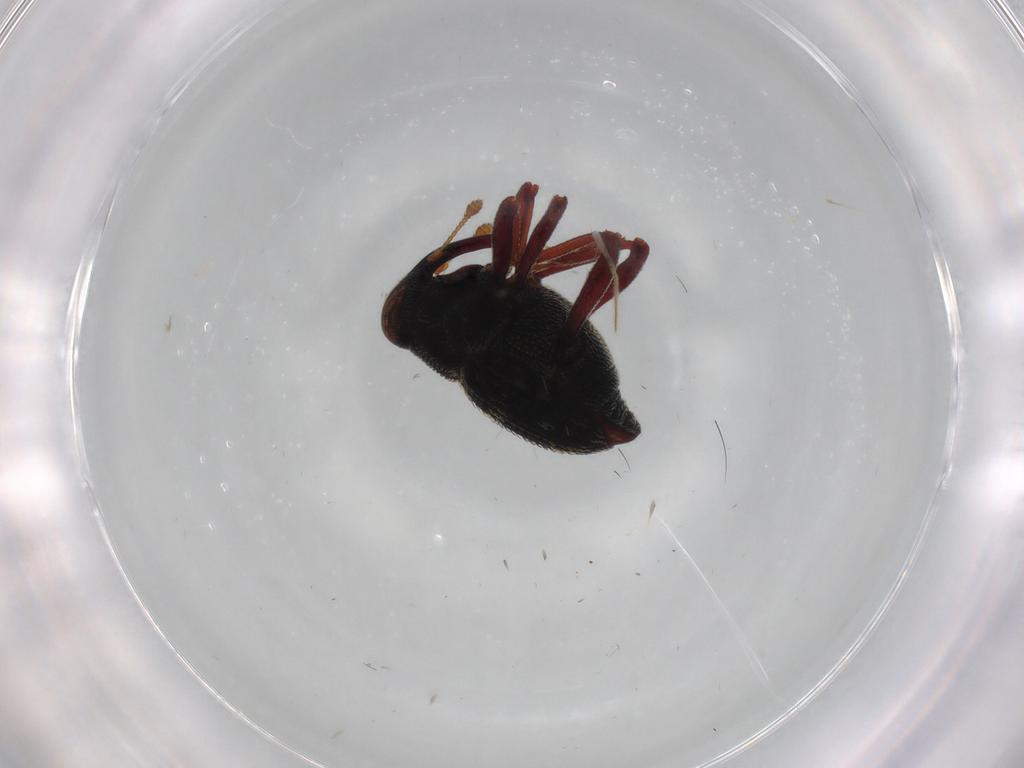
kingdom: Animalia
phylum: Arthropoda
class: Insecta
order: Coleoptera
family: Curculionidae
